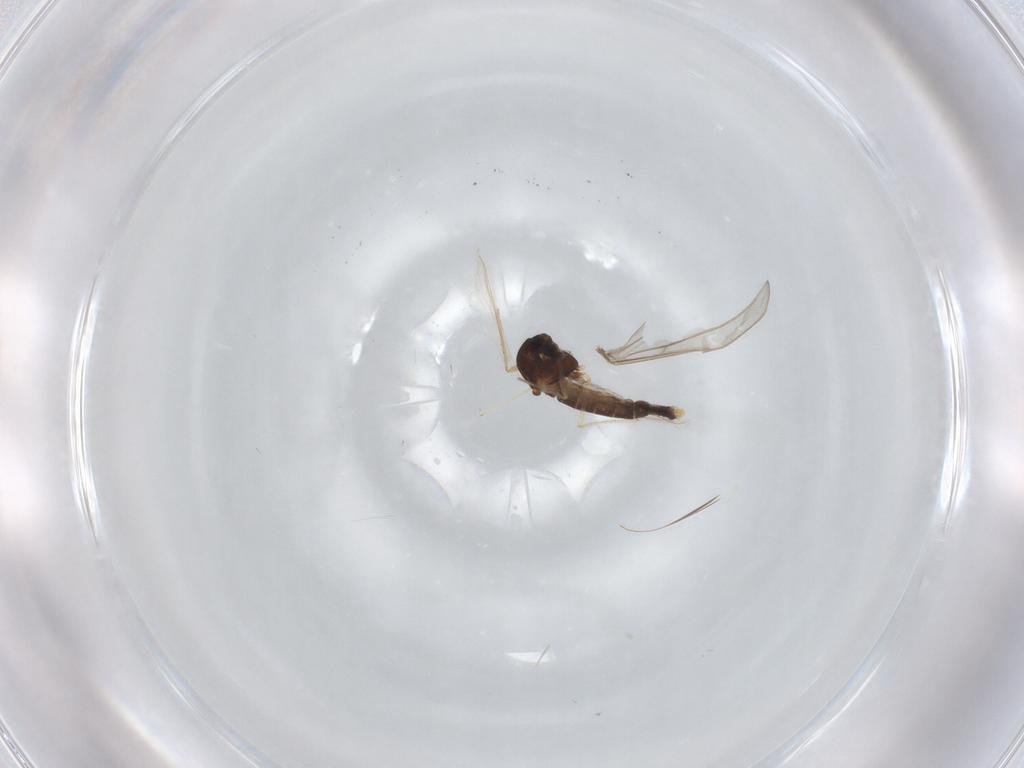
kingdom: Animalia
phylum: Arthropoda
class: Insecta
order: Diptera
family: Chironomidae
